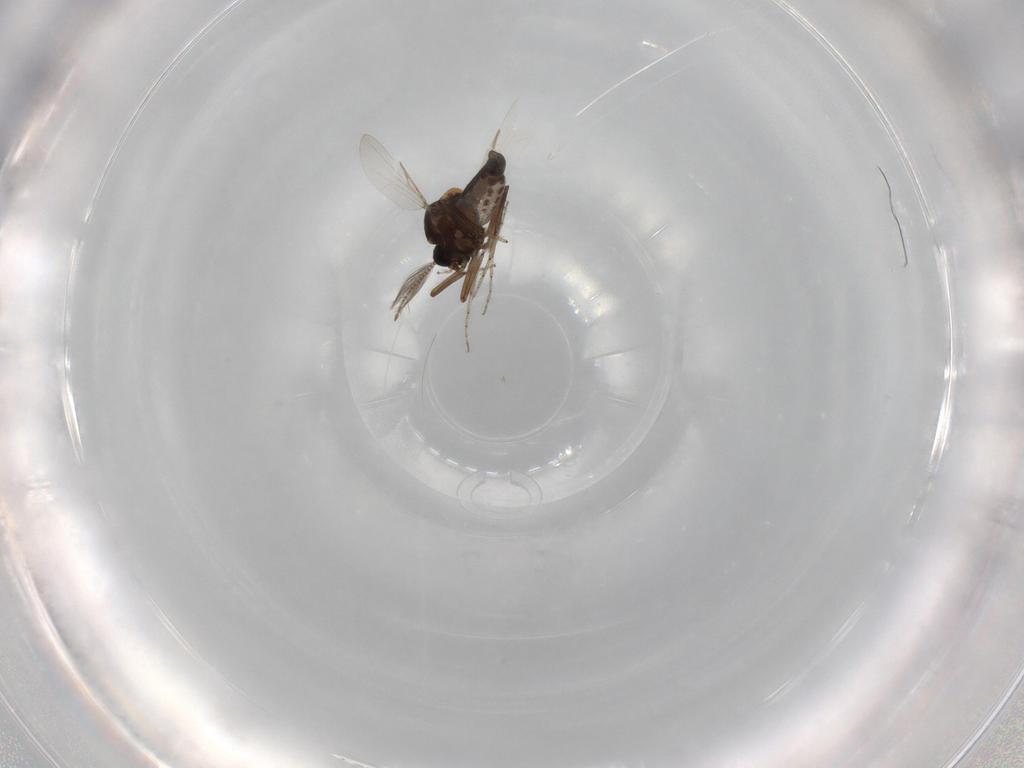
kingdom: Animalia
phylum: Arthropoda
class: Insecta
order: Diptera
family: Ceratopogonidae
